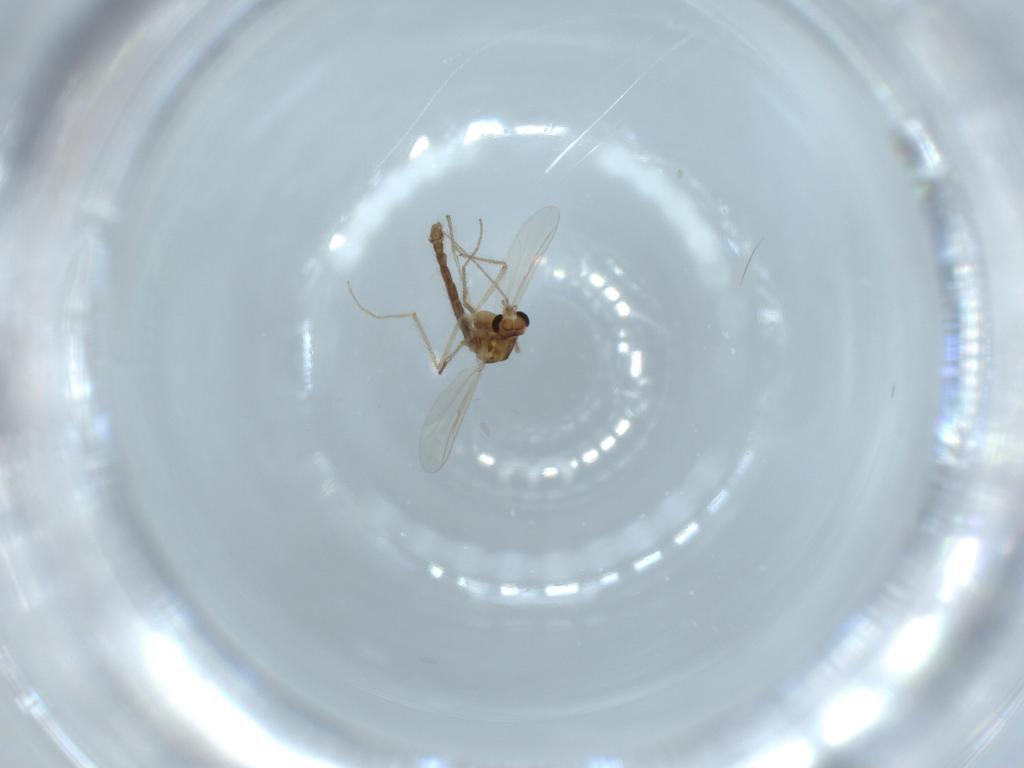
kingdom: Animalia
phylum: Arthropoda
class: Insecta
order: Diptera
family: Chironomidae
